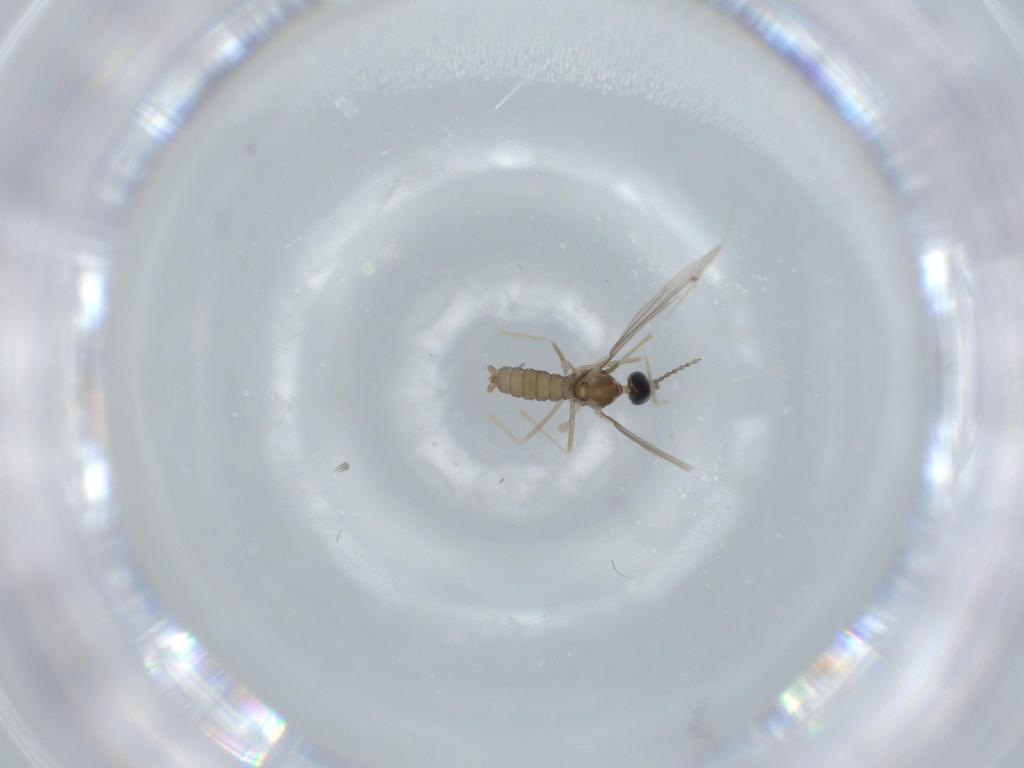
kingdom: Animalia
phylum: Arthropoda
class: Insecta
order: Diptera
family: Cecidomyiidae
